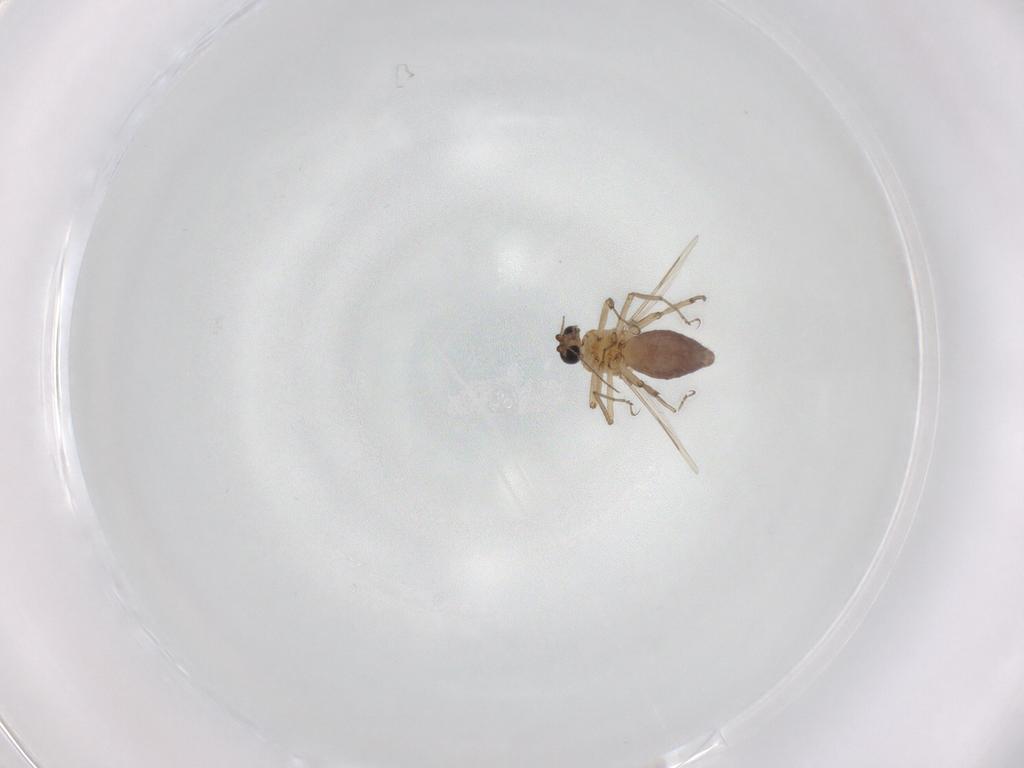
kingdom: Animalia
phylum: Arthropoda
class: Insecta
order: Diptera
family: Ceratopogonidae
